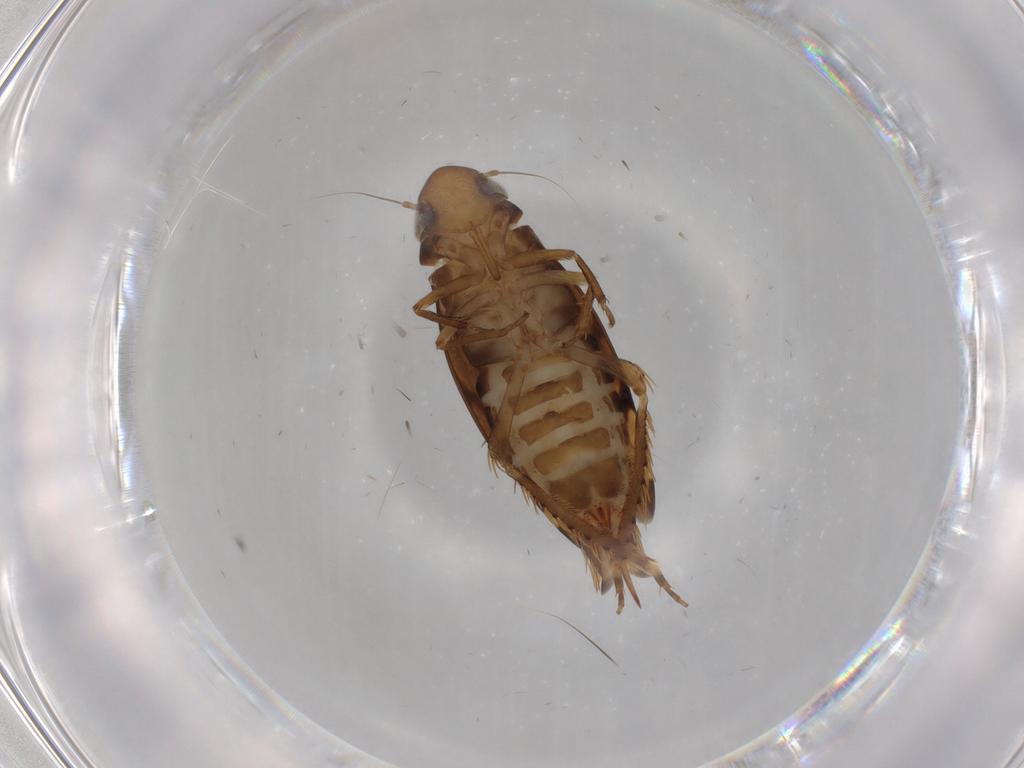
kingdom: Animalia
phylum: Arthropoda
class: Insecta
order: Hemiptera
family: Cicadellidae
